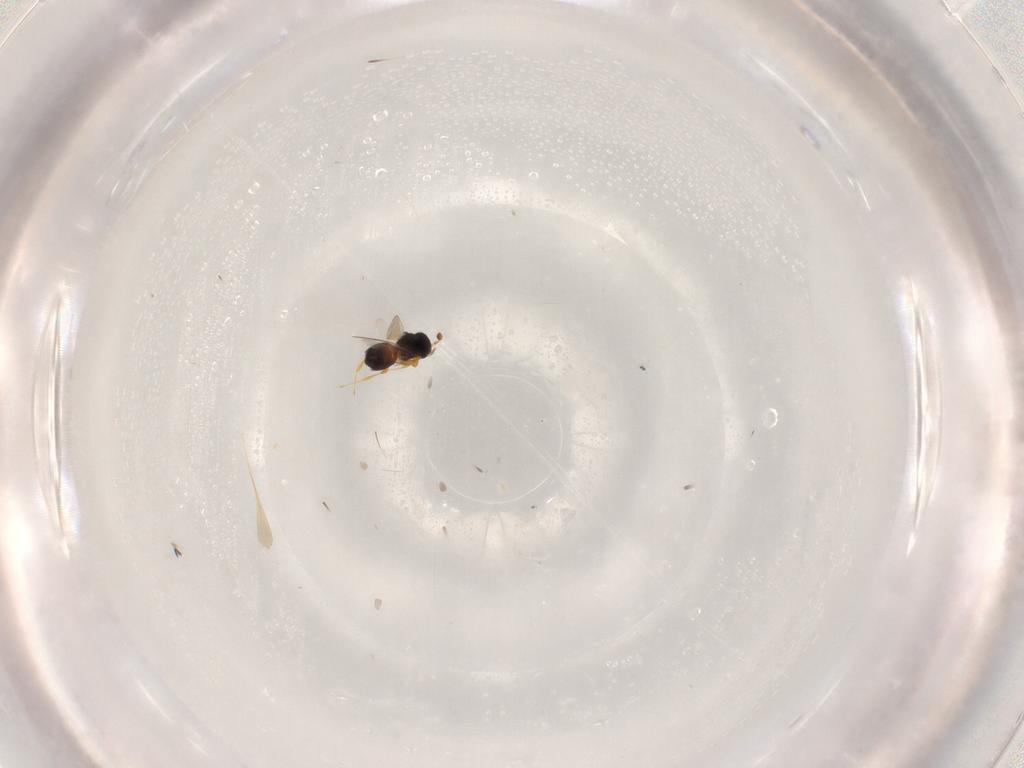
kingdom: Animalia
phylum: Arthropoda
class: Insecta
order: Hymenoptera
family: Platygastridae
